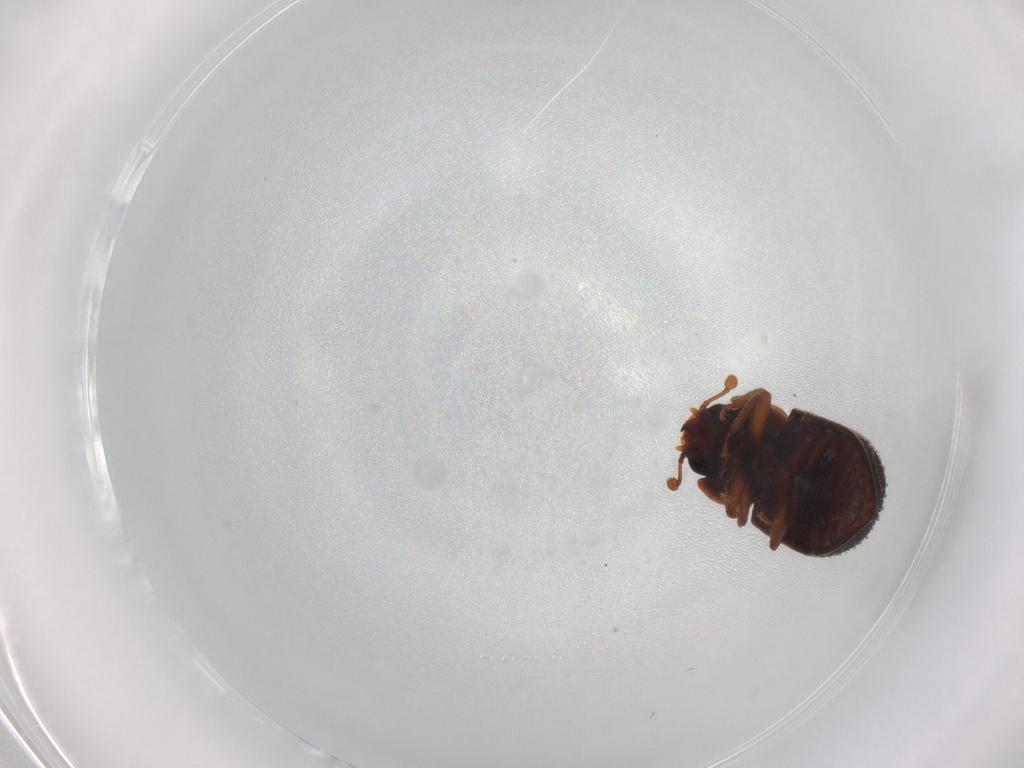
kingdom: Animalia
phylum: Arthropoda
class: Insecta
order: Coleoptera
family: Zopheridae
